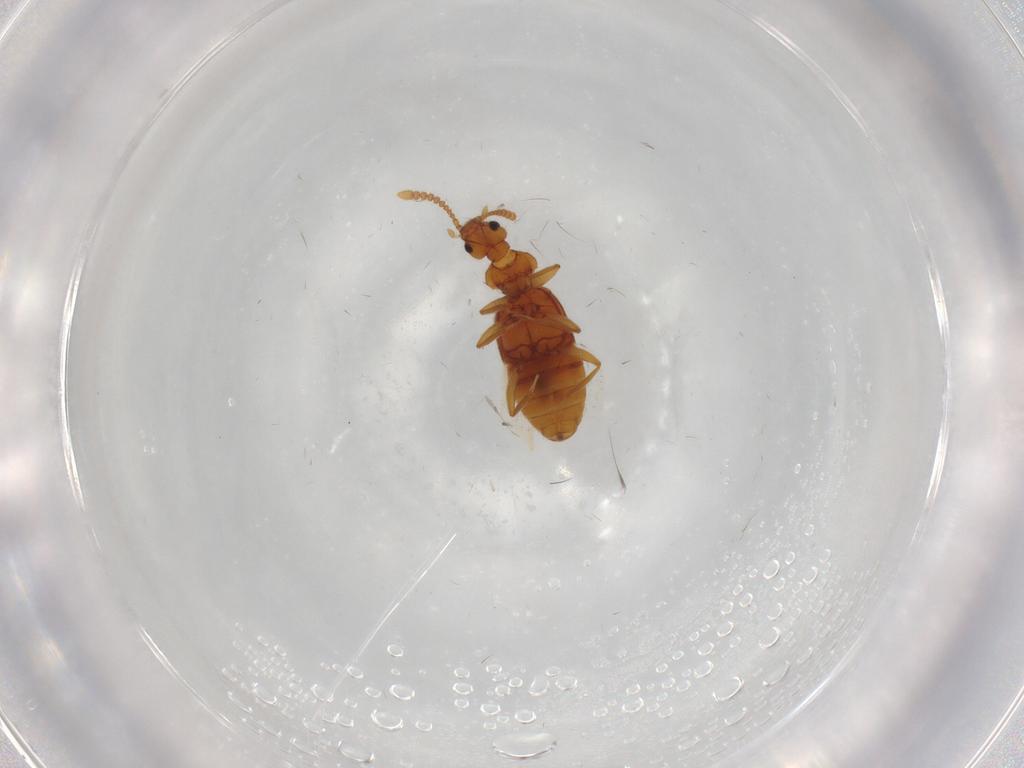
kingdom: Animalia
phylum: Arthropoda
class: Insecta
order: Coleoptera
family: Staphylinidae
